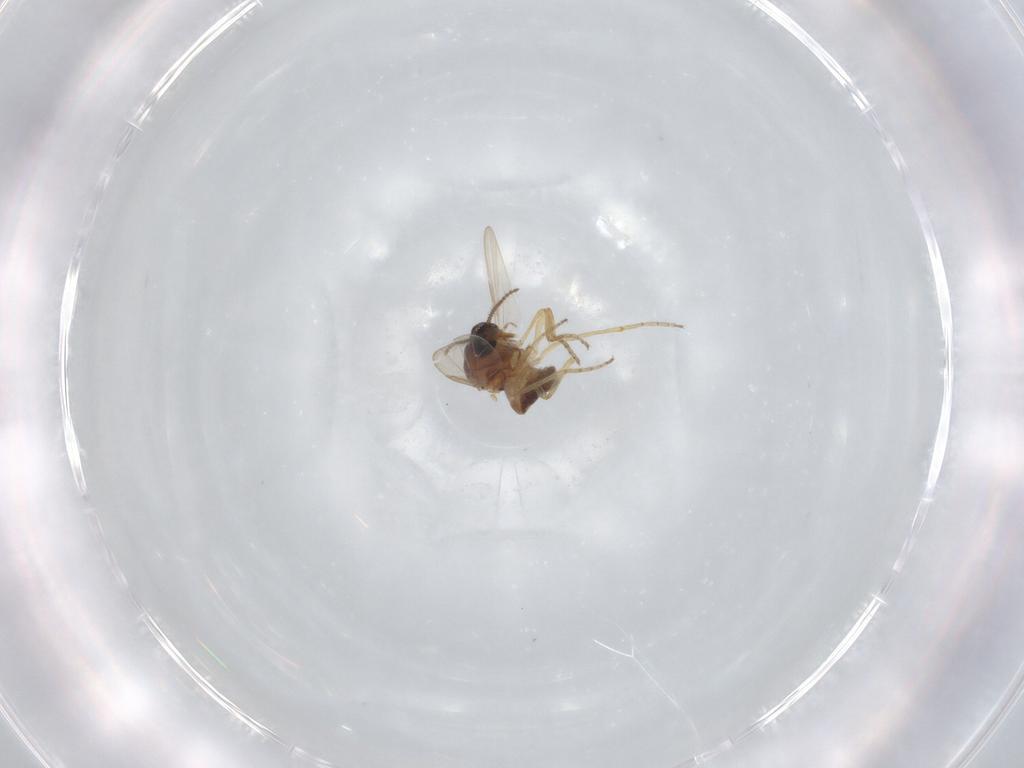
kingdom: Animalia
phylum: Arthropoda
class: Insecta
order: Diptera
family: Ceratopogonidae
